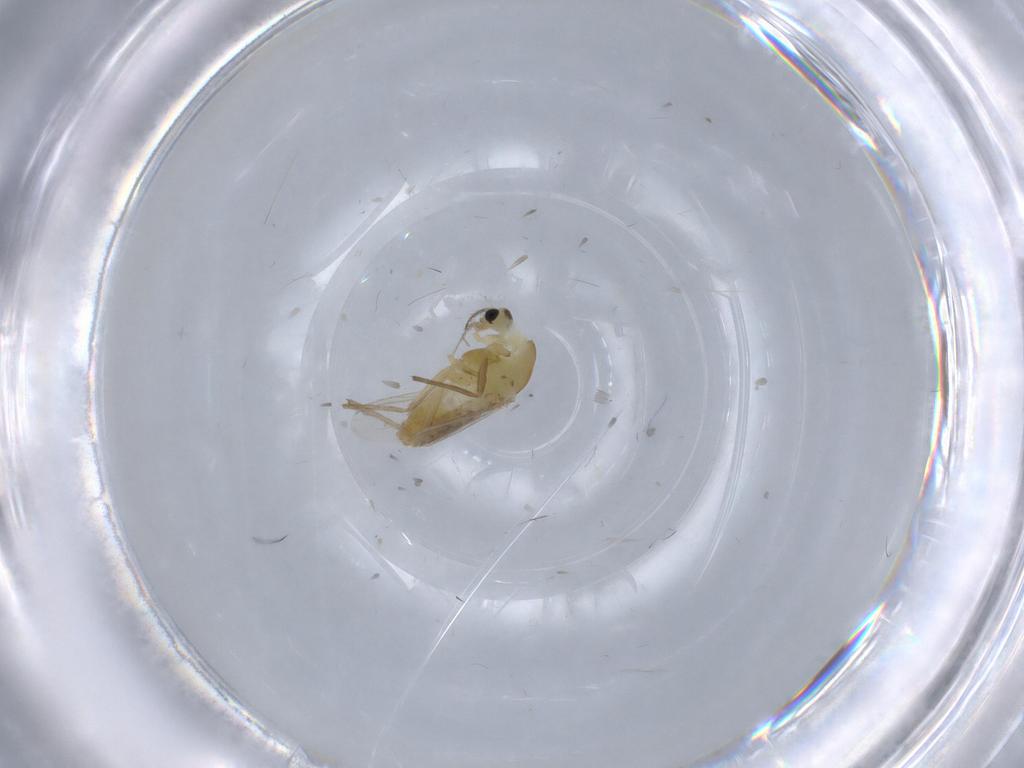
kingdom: Animalia
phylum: Arthropoda
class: Insecta
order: Diptera
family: Chironomidae
